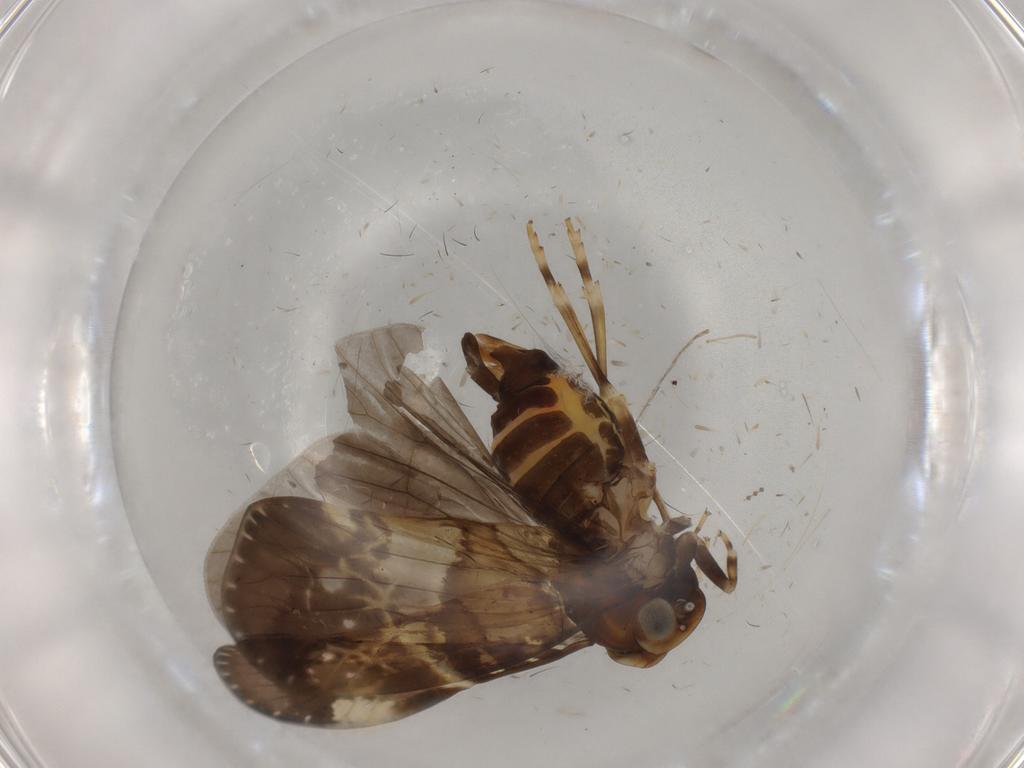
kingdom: Animalia
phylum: Arthropoda
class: Insecta
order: Hemiptera
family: Cixiidae
